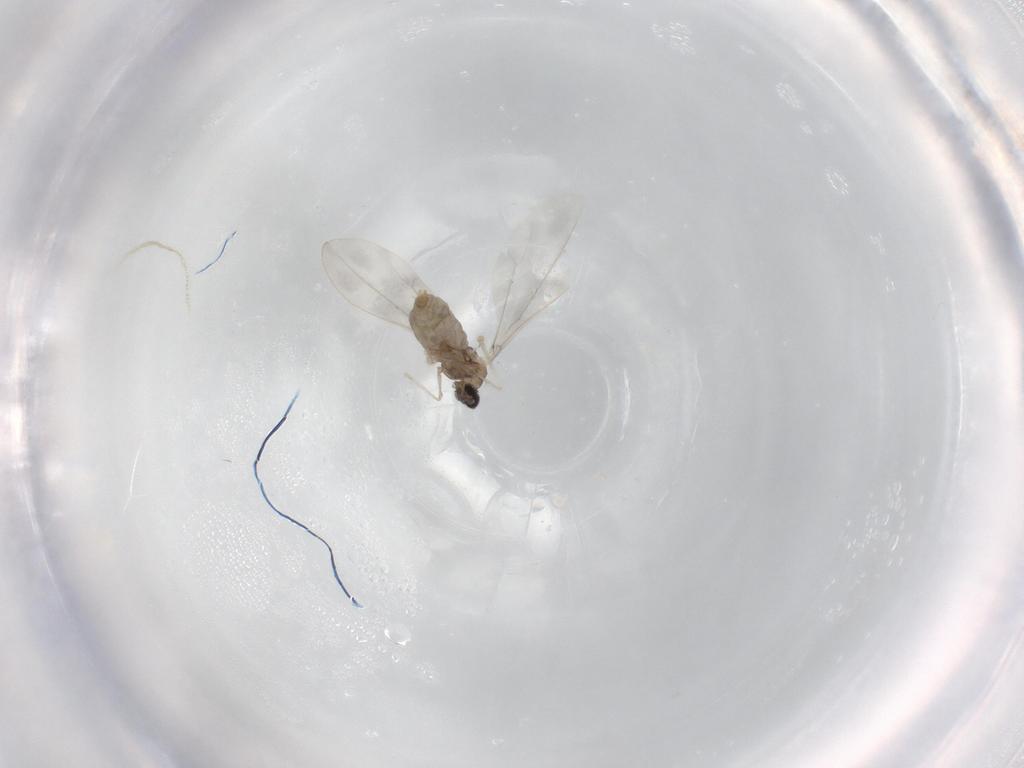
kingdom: Animalia
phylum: Arthropoda
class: Insecta
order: Diptera
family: Cecidomyiidae
